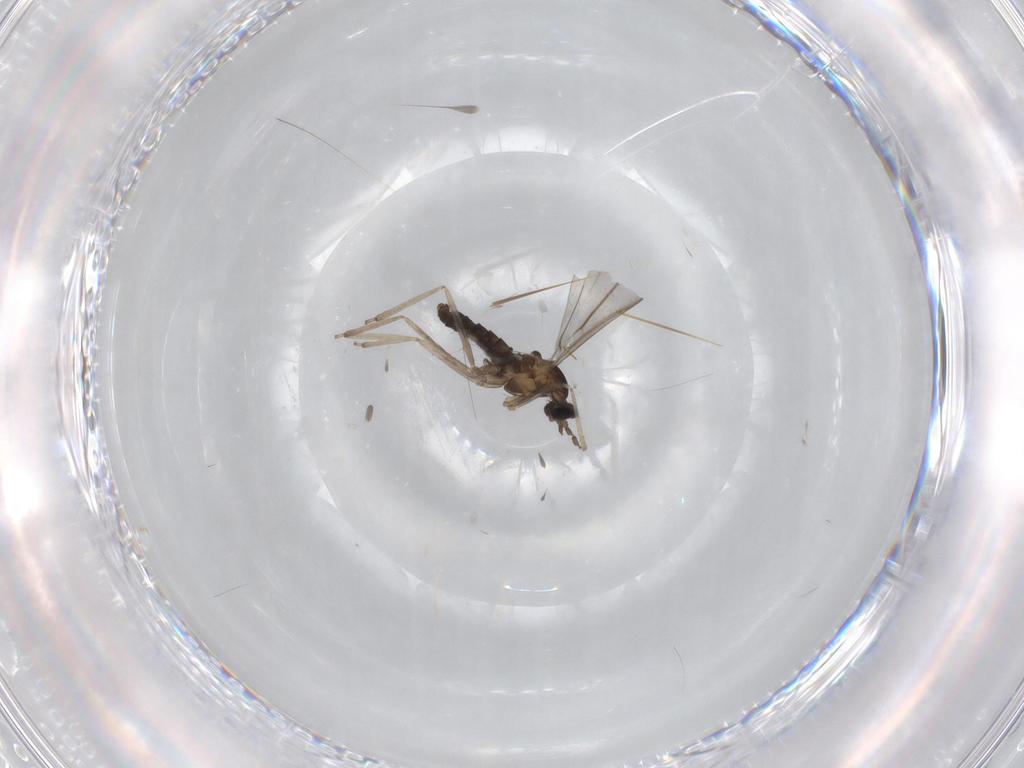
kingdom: Animalia
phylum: Arthropoda
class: Insecta
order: Diptera
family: Cecidomyiidae
